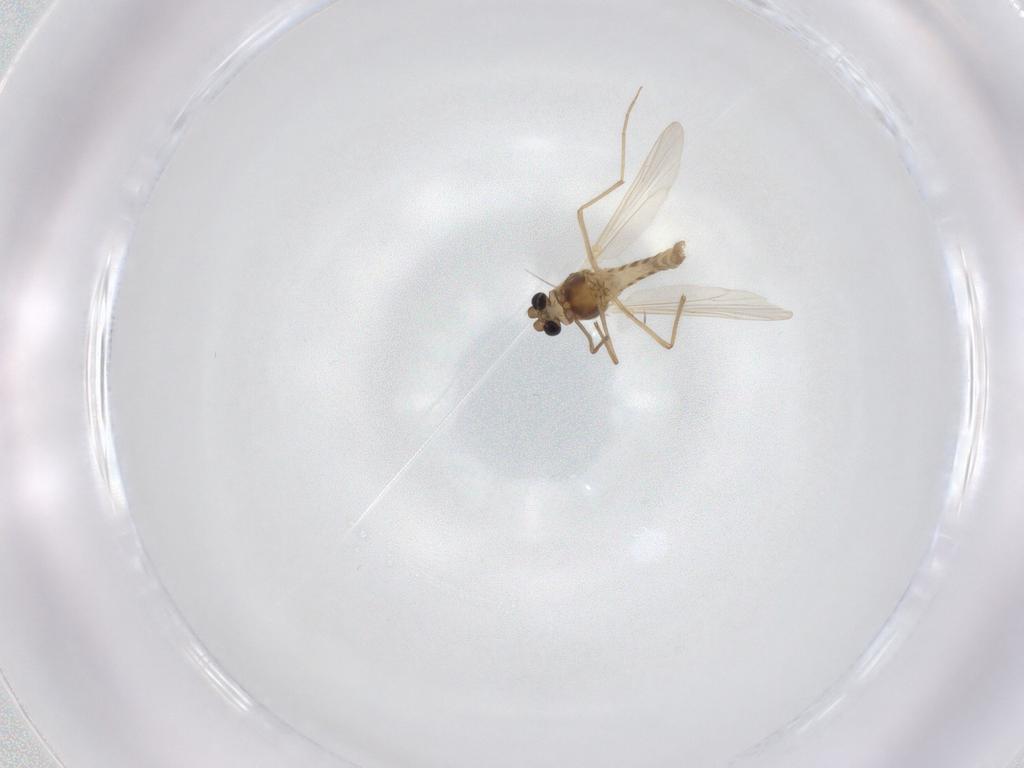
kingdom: Animalia
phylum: Arthropoda
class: Insecta
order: Diptera
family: Chironomidae
